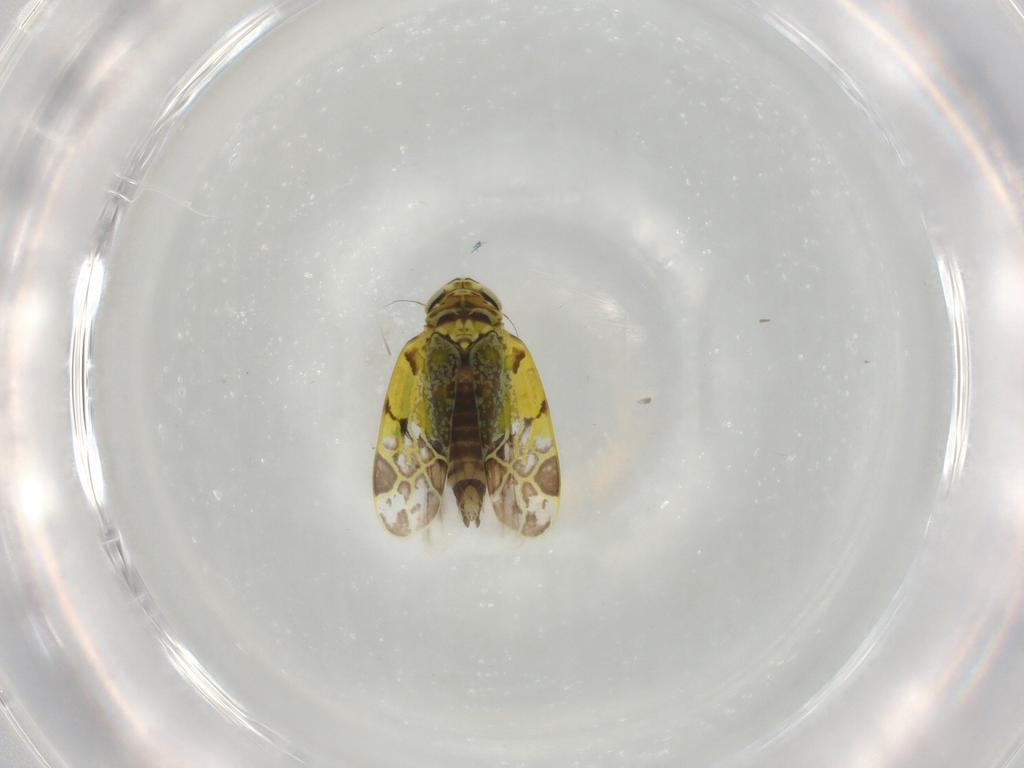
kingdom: Animalia
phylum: Arthropoda
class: Insecta
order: Hemiptera
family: Cicadellidae
